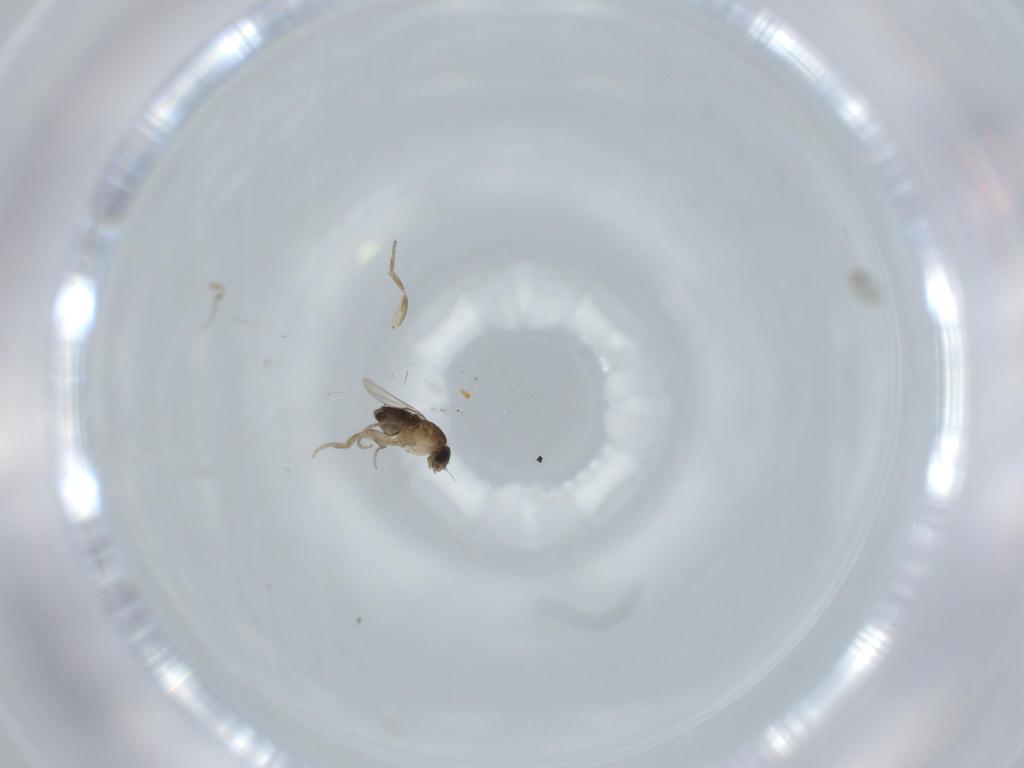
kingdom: Animalia
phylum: Arthropoda
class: Insecta
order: Diptera
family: Phoridae
